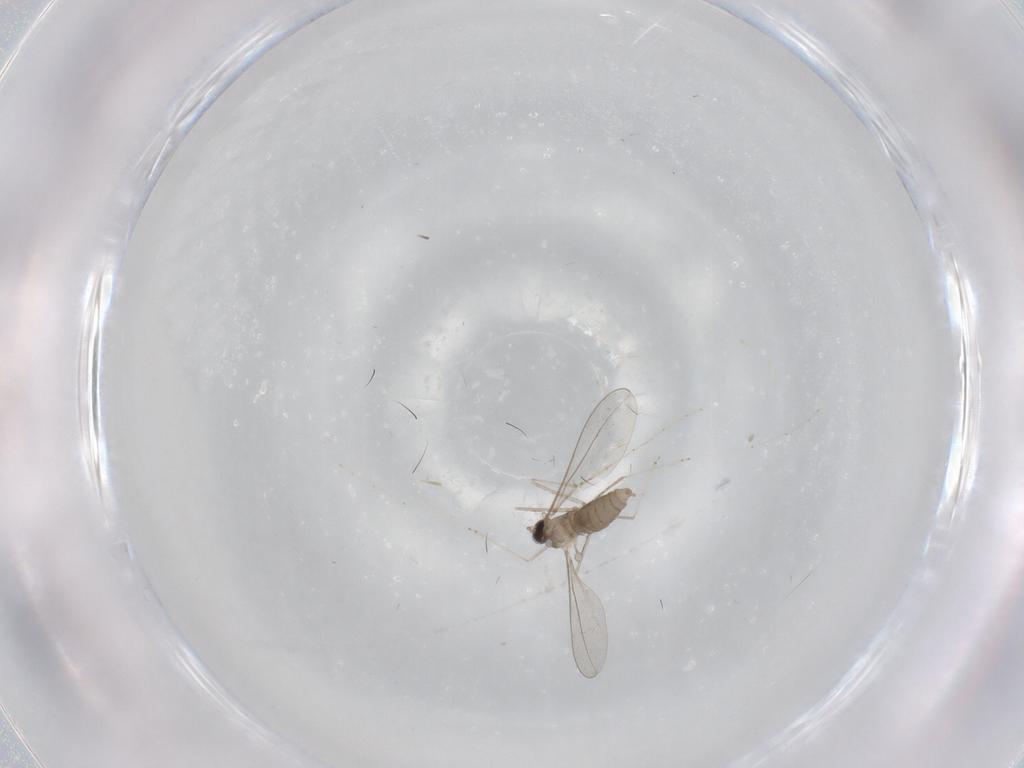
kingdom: Animalia
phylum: Arthropoda
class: Insecta
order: Diptera
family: Cecidomyiidae
